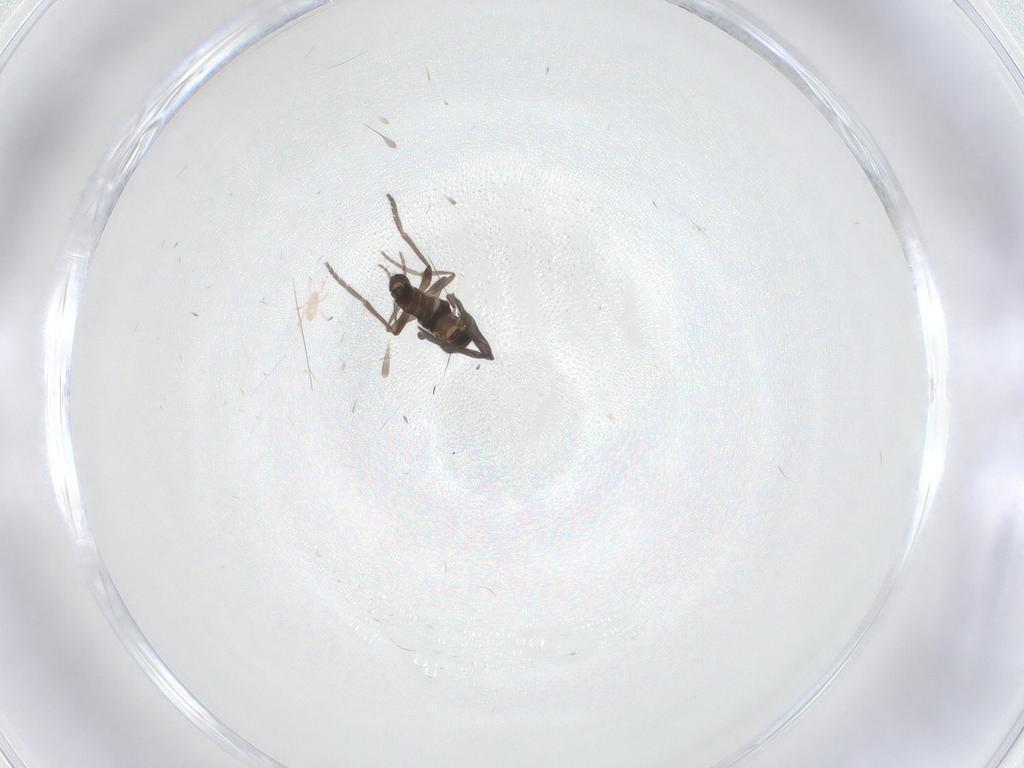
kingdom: Animalia
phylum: Arthropoda
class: Insecta
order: Diptera
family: Phoridae
